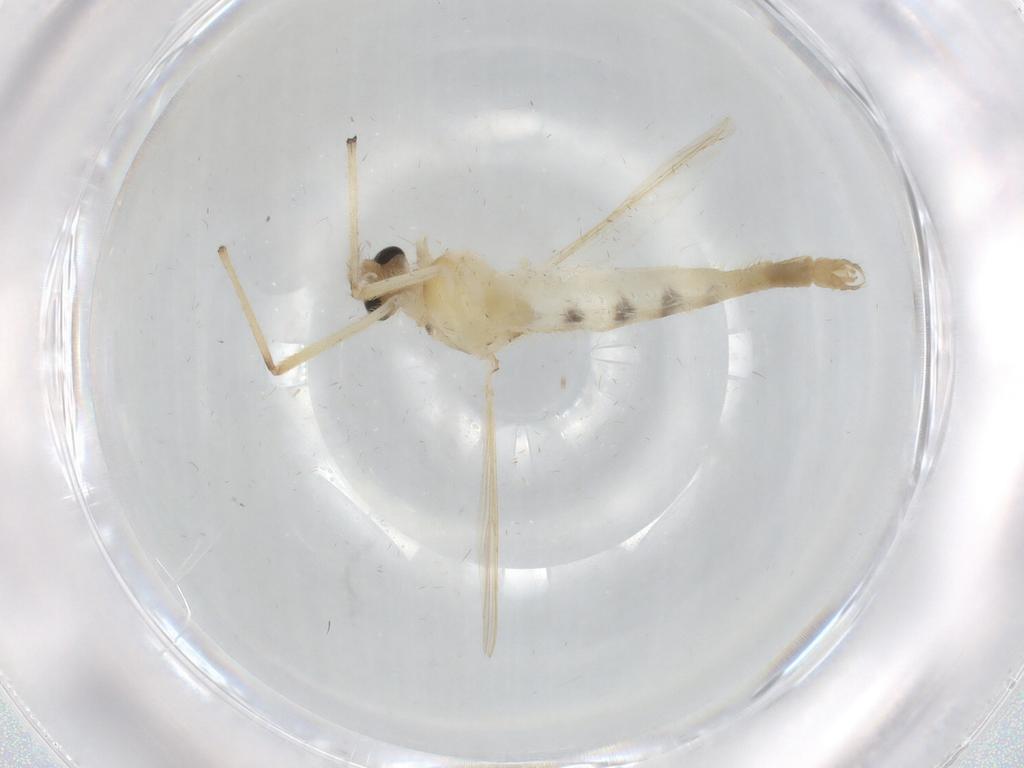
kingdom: Animalia
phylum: Arthropoda
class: Insecta
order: Diptera
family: Chironomidae
